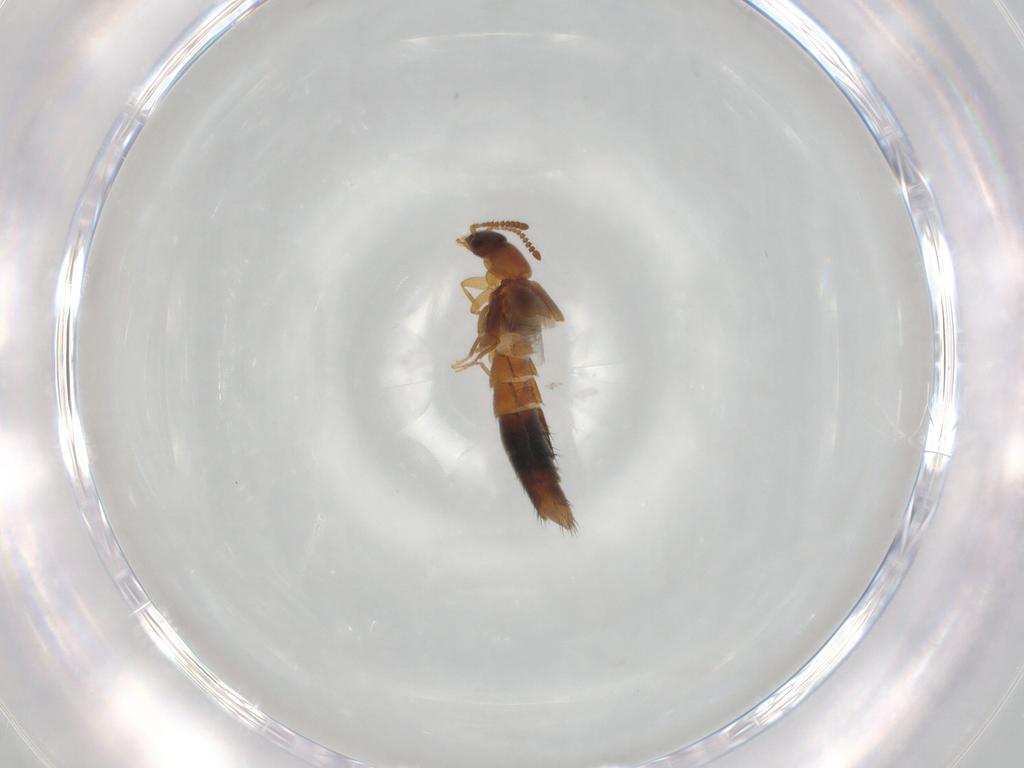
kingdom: Animalia
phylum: Arthropoda
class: Insecta
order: Coleoptera
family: Staphylinidae
